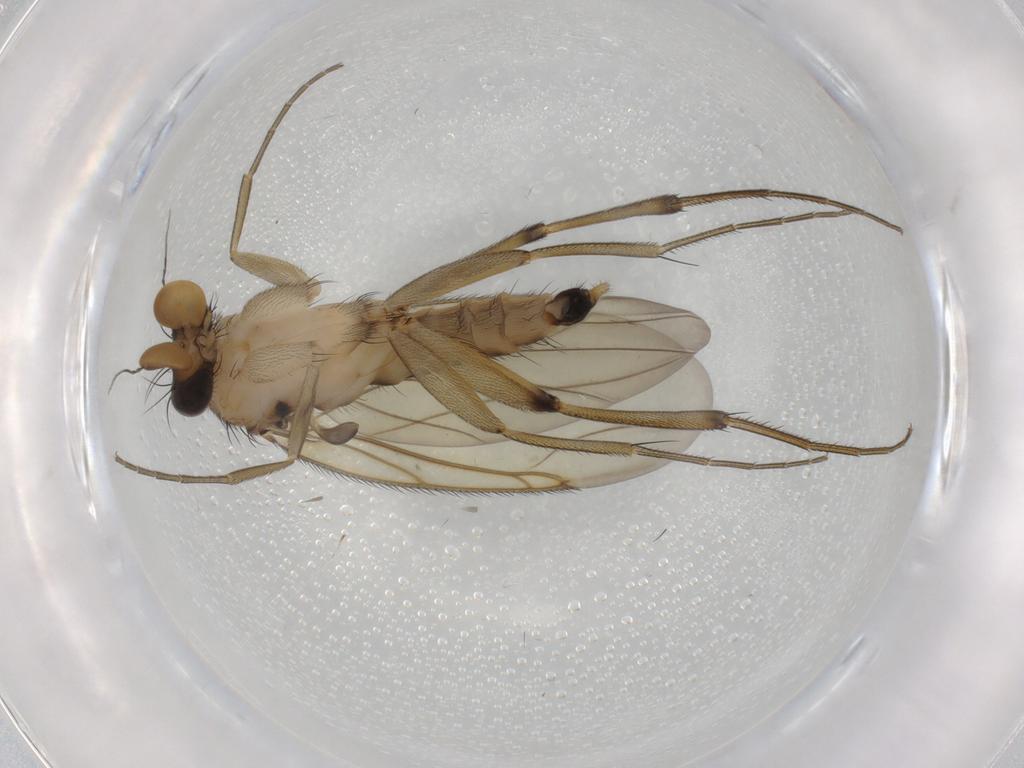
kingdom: Animalia
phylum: Arthropoda
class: Insecta
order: Diptera
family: Phoridae
